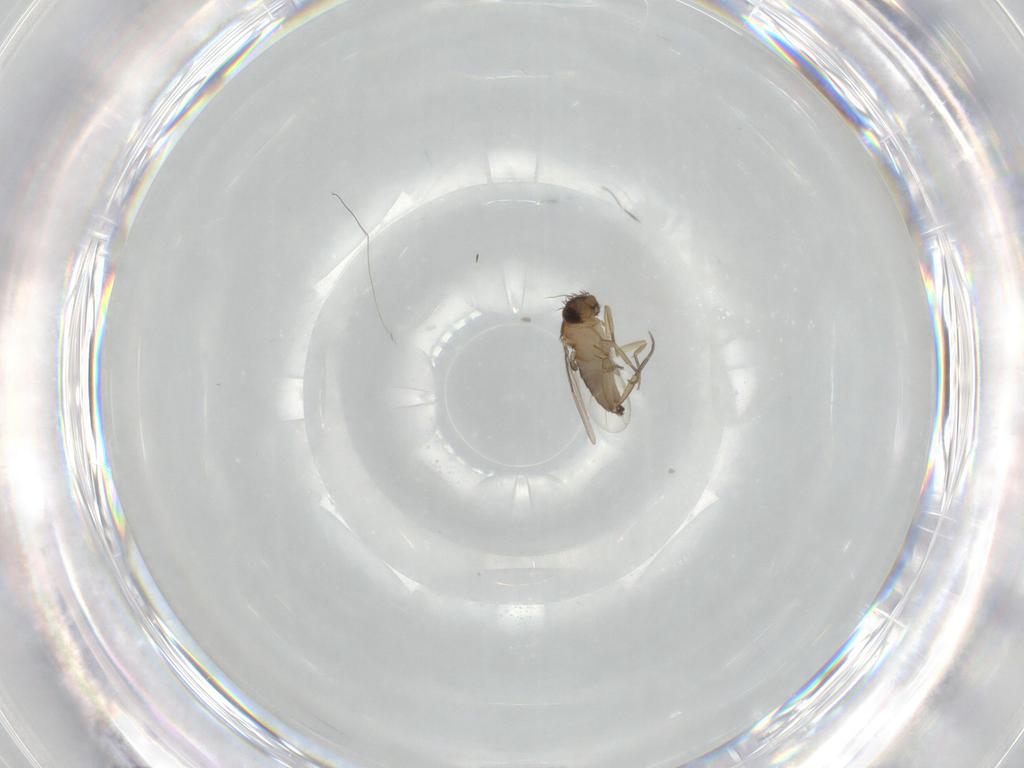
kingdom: Animalia
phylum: Arthropoda
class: Insecta
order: Diptera
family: Phoridae
